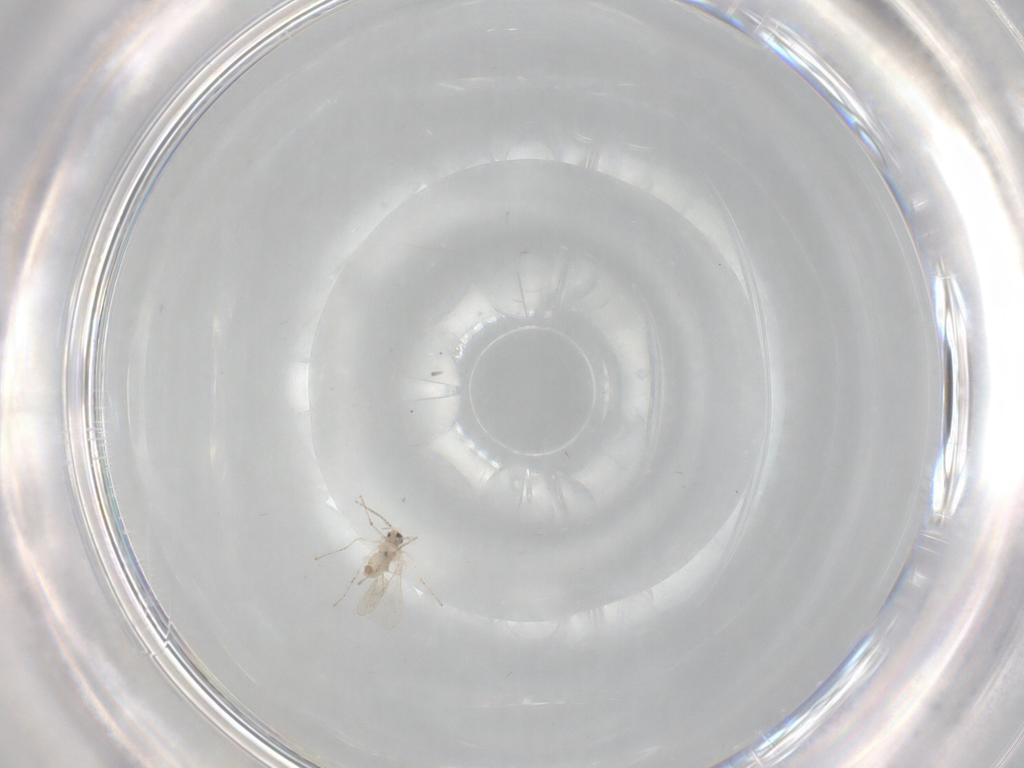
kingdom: Animalia
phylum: Arthropoda
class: Insecta
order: Diptera
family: Cecidomyiidae
